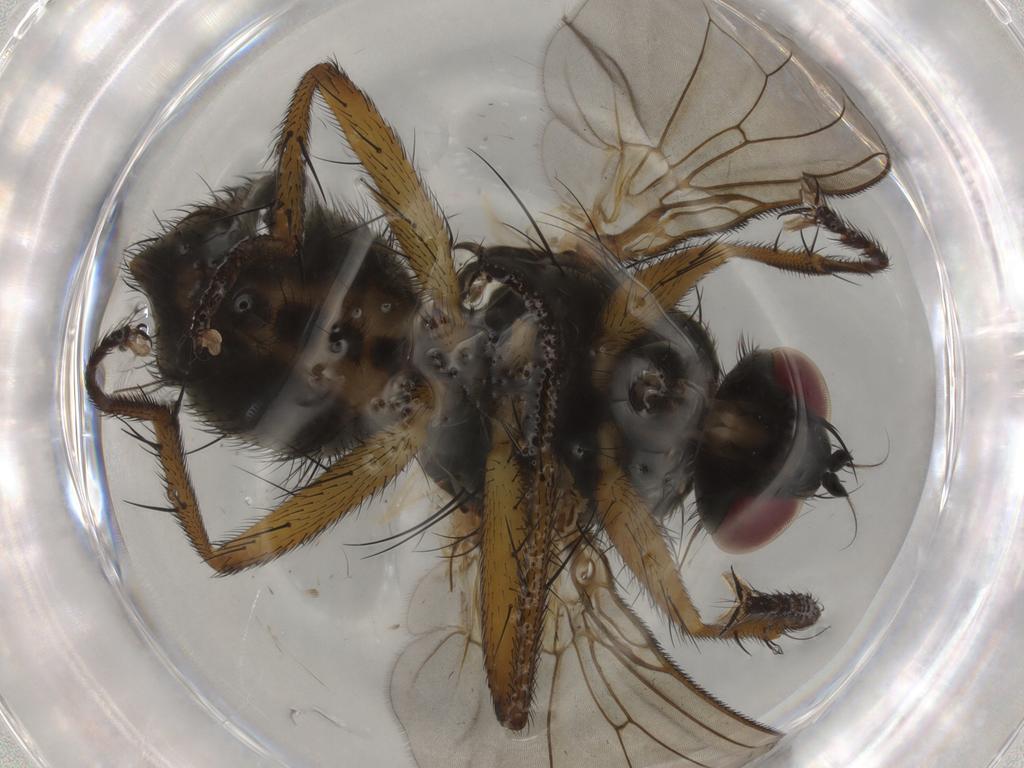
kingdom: Animalia
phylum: Arthropoda
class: Insecta
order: Diptera
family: Muscidae
